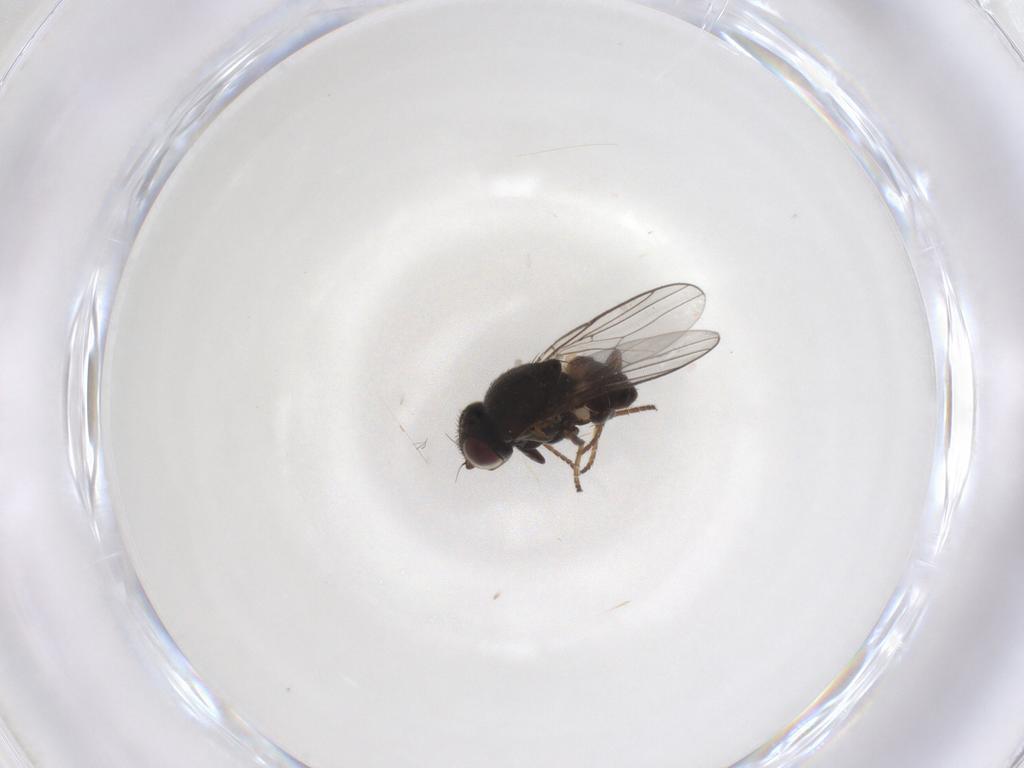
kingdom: Animalia
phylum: Arthropoda
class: Insecta
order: Diptera
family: Chloropidae
